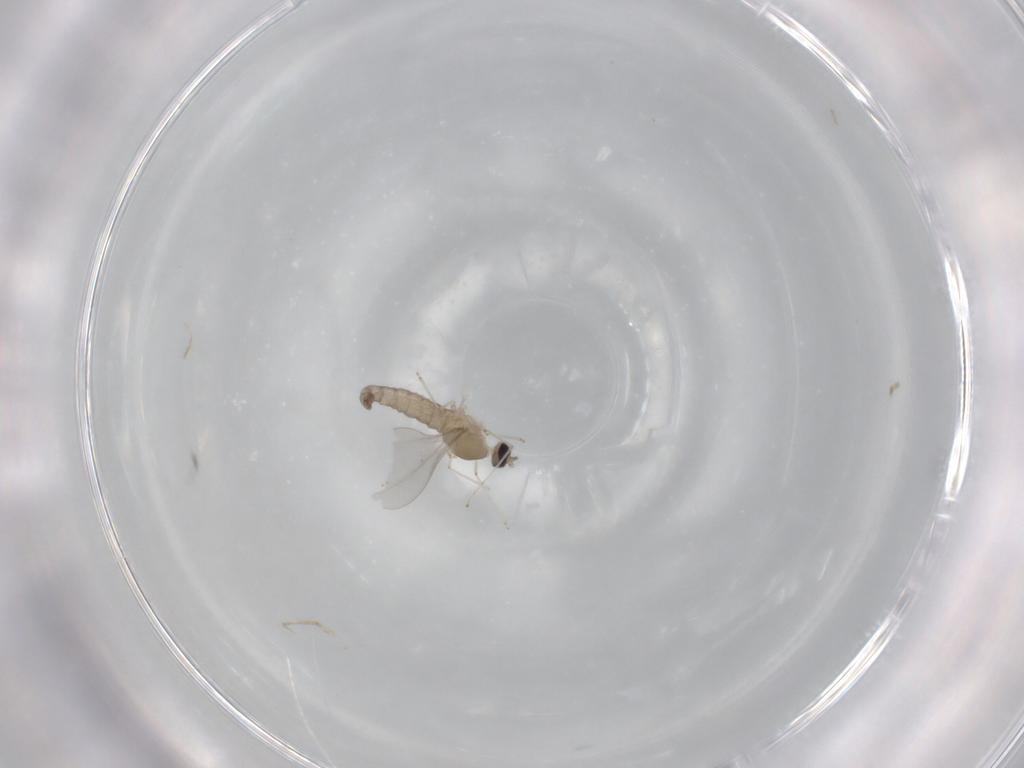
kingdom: Animalia
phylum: Arthropoda
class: Insecta
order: Diptera
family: Cecidomyiidae
